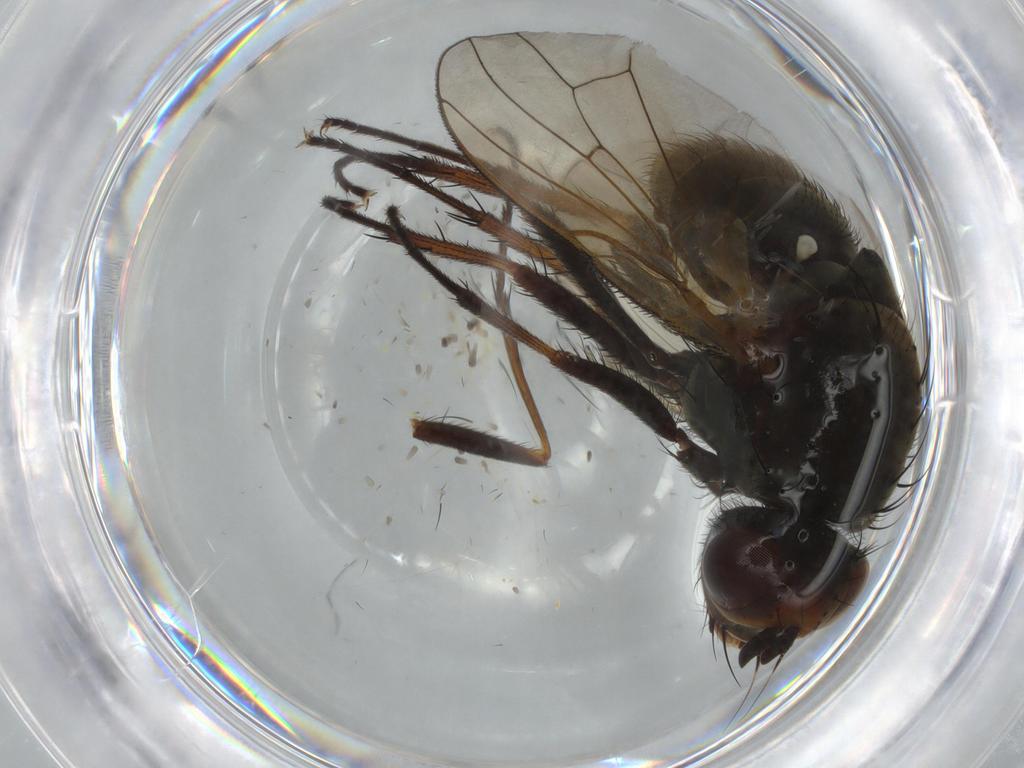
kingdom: Animalia
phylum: Arthropoda
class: Insecta
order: Diptera
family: Anthomyiidae
